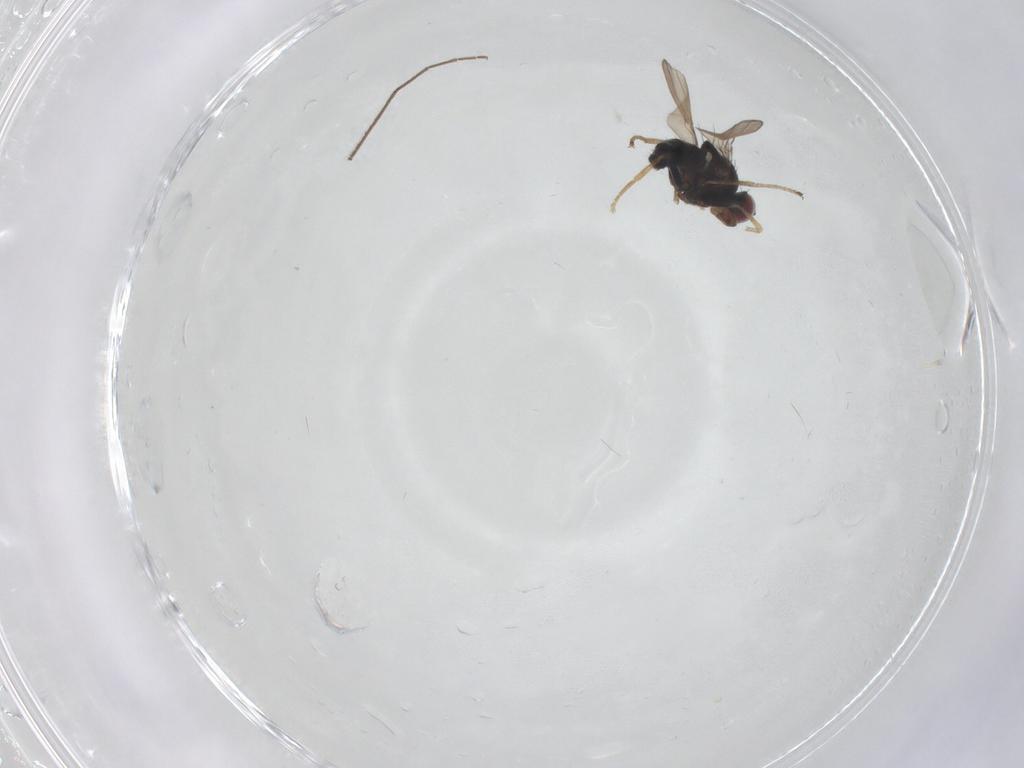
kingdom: Animalia
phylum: Arthropoda
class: Insecta
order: Diptera
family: Ephydridae
